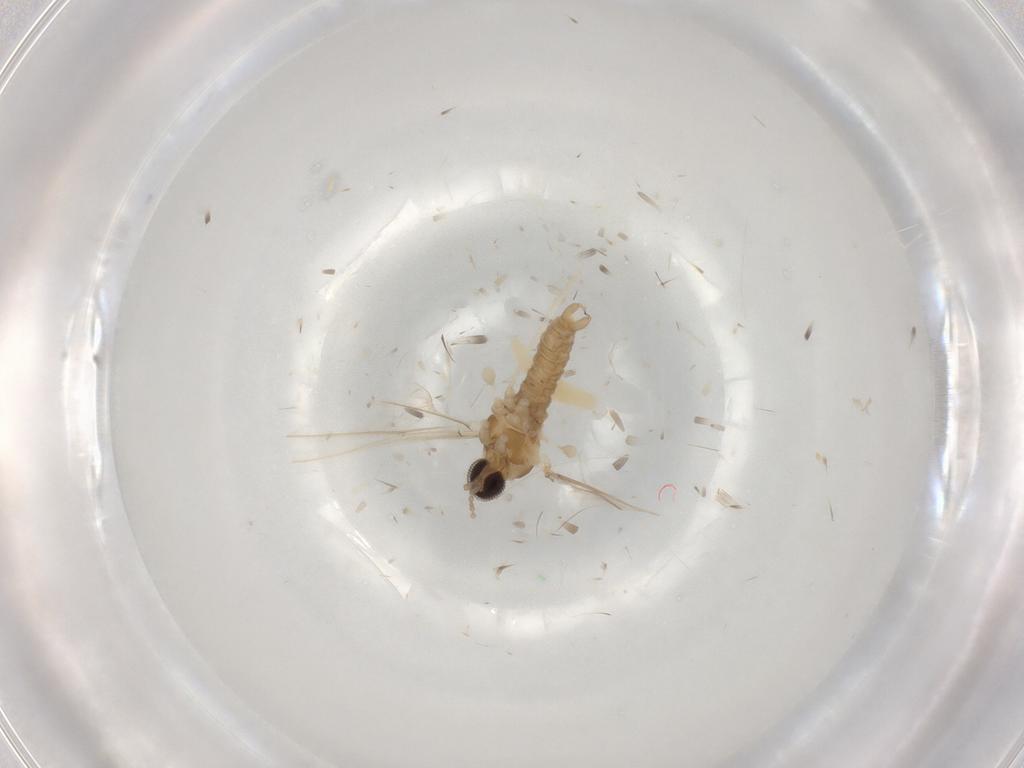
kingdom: Animalia
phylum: Arthropoda
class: Insecta
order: Diptera
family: Sarcophagidae
